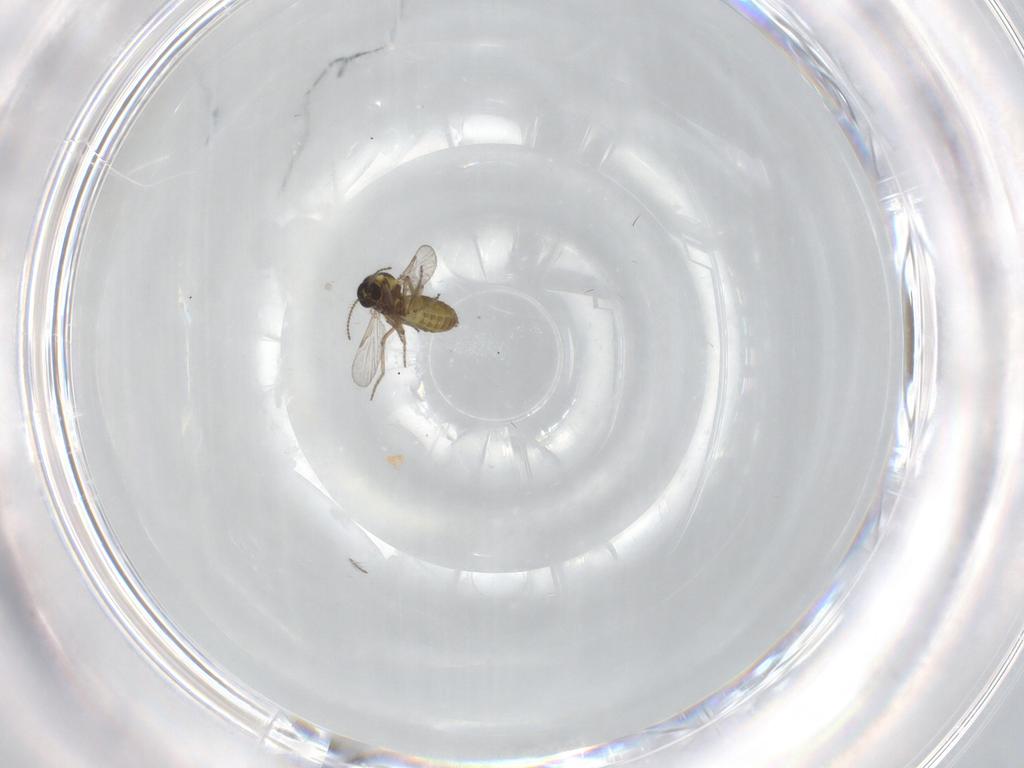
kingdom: Animalia
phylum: Arthropoda
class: Insecta
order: Diptera
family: Ceratopogonidae
